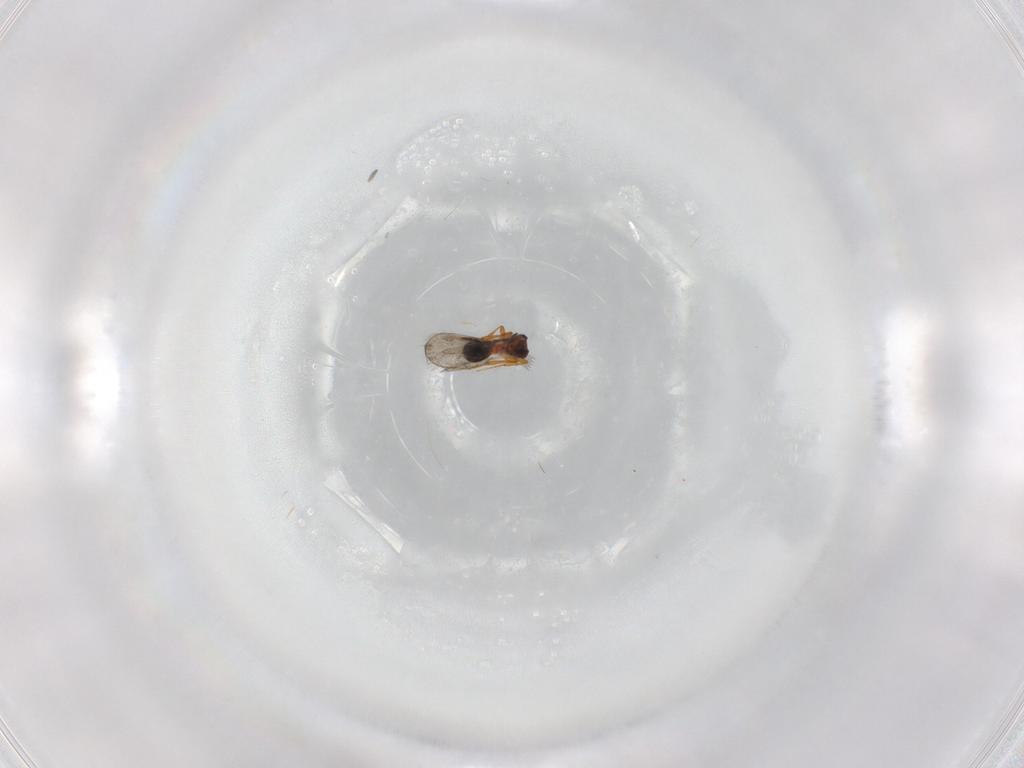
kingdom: Animalia
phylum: Arthropoda
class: Insecta
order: Hymenoptera
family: Platygastridae
